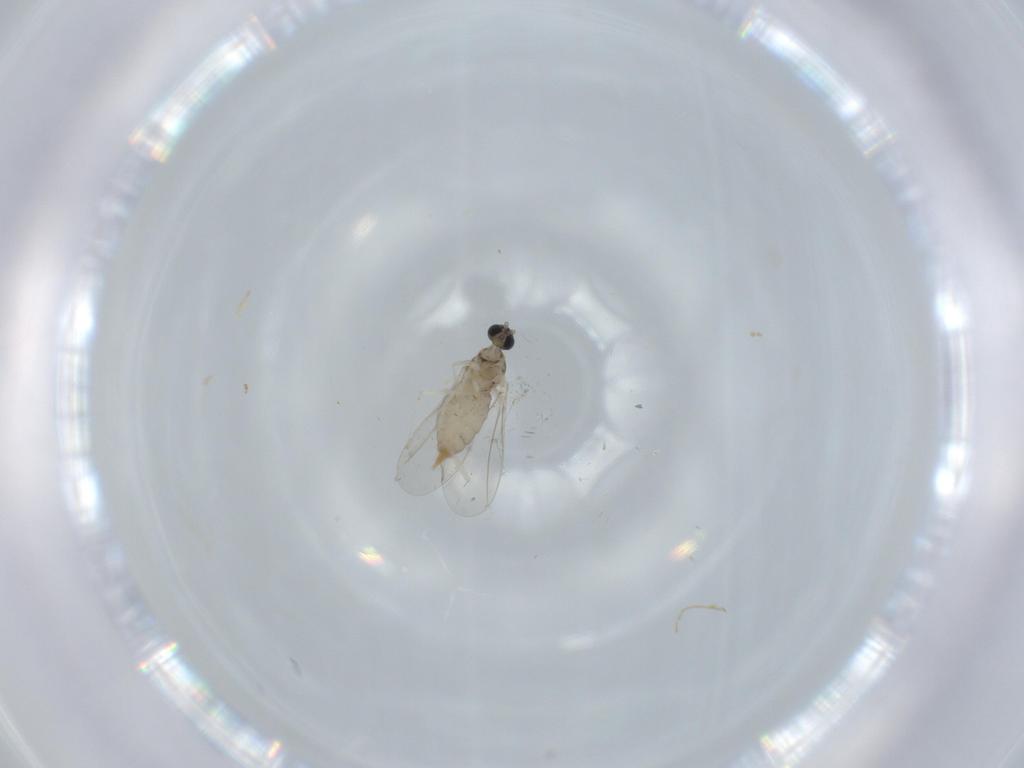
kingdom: Animalia
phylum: Arthropoda
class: Insecta
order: Diptera
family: Cecidomyiidae
